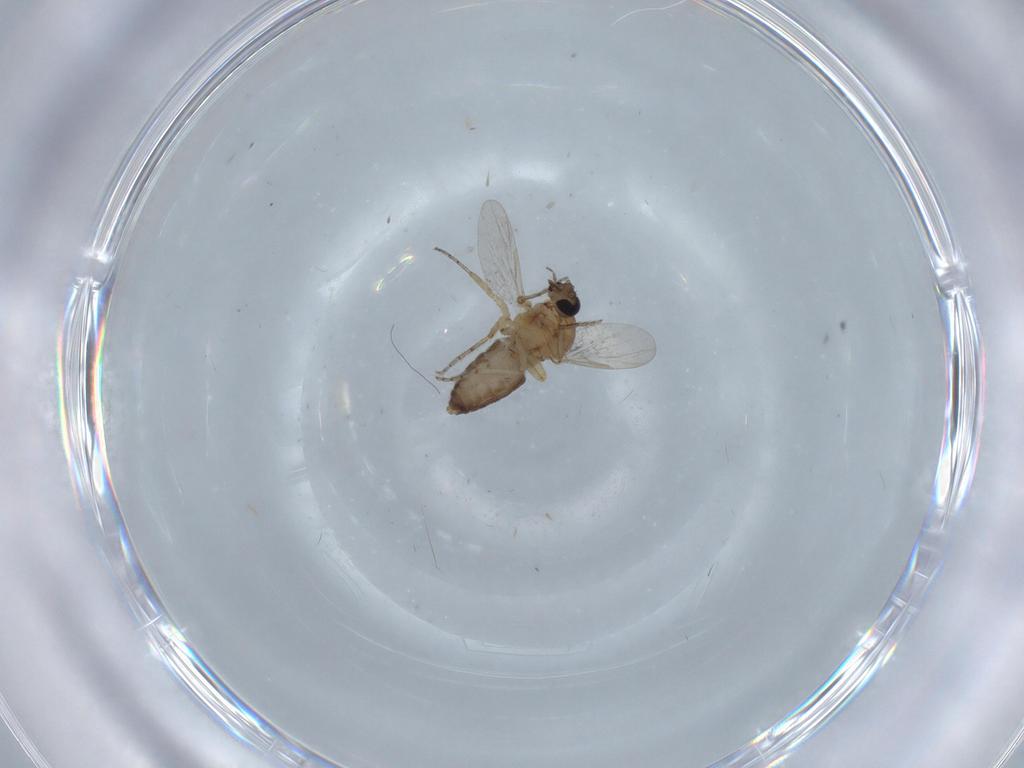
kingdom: Animalia
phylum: Arthropoda
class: Insecta
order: Diptera
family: Ceratopogonidae
